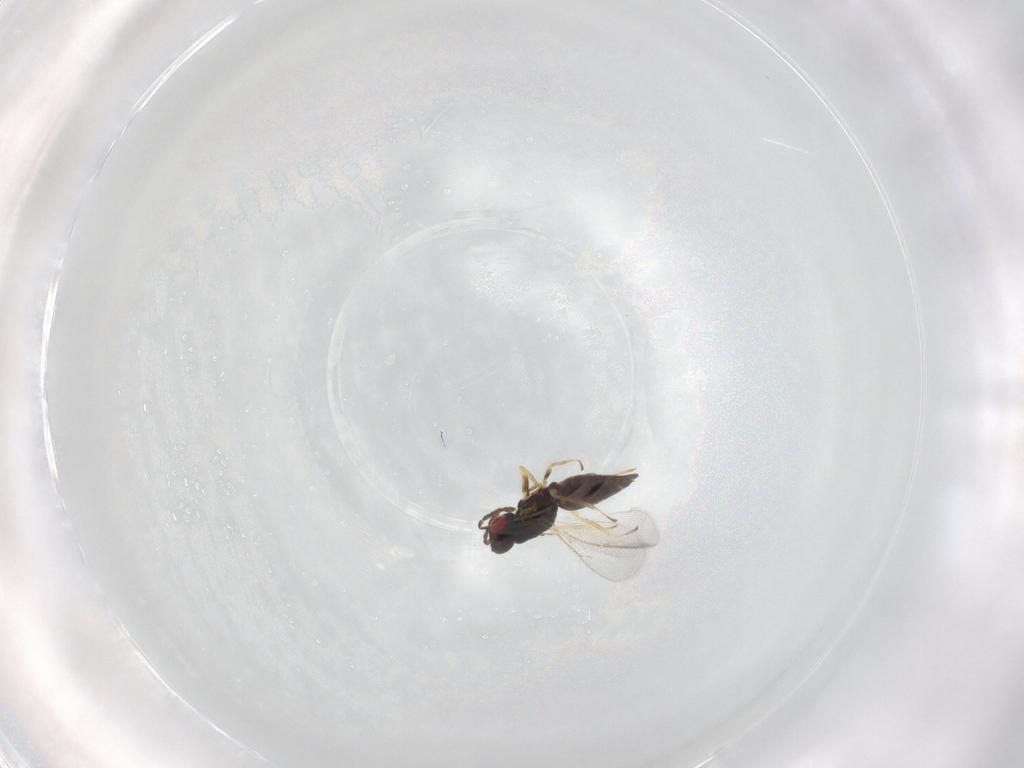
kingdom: Animalia
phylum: Arthropoda
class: Insecta
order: Hymenoptera
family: Eulophidae
